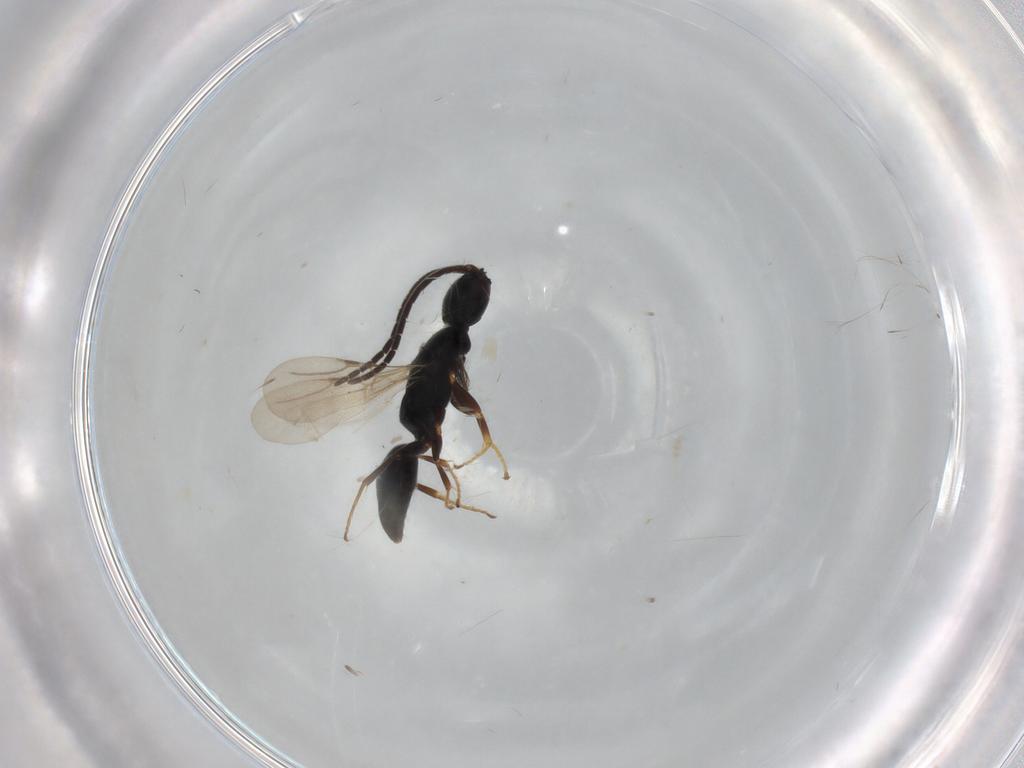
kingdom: Animalia
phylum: Arthropoda
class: Insecta
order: Hymenoptera
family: Bethylidae
